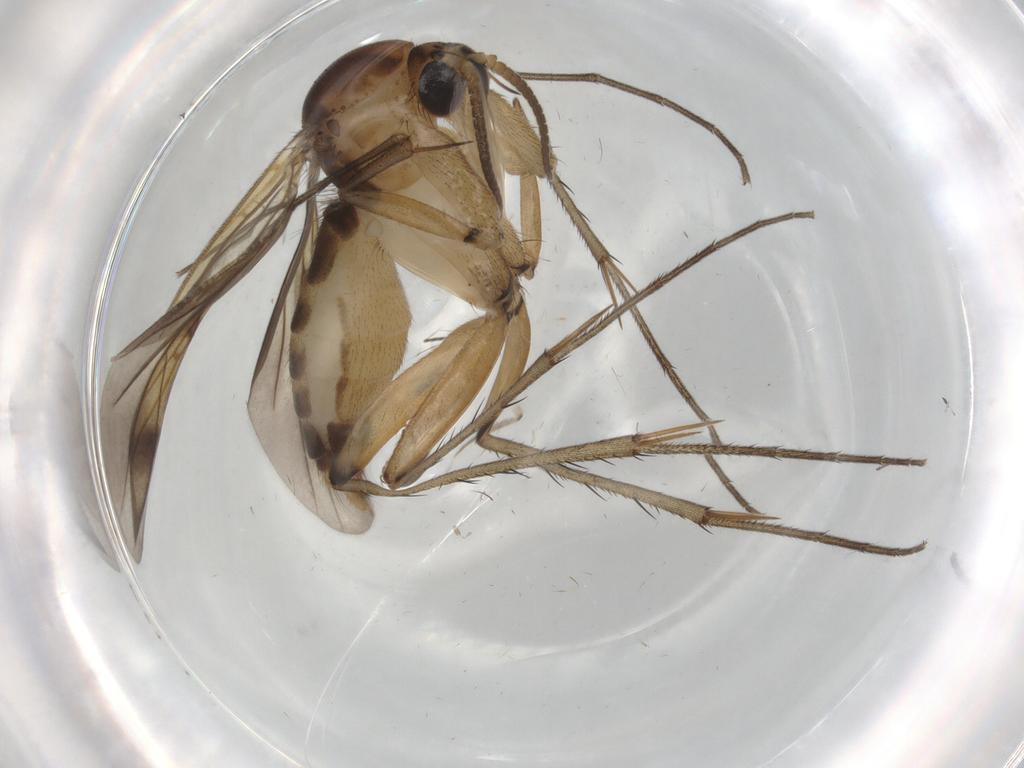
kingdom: Animalia
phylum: Arthropoda
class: Insecta
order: Diptera
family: Mycetophilidae
